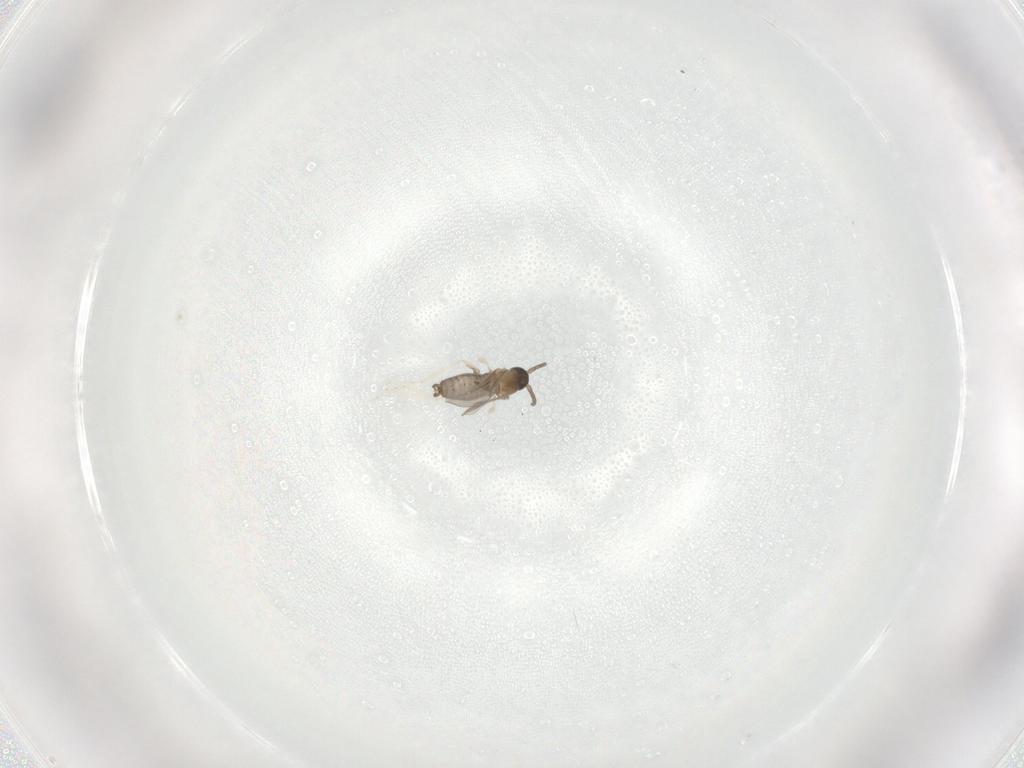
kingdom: Animalia
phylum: Arthropoda
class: Insecta
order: Diptera
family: Cecidomyiidae
